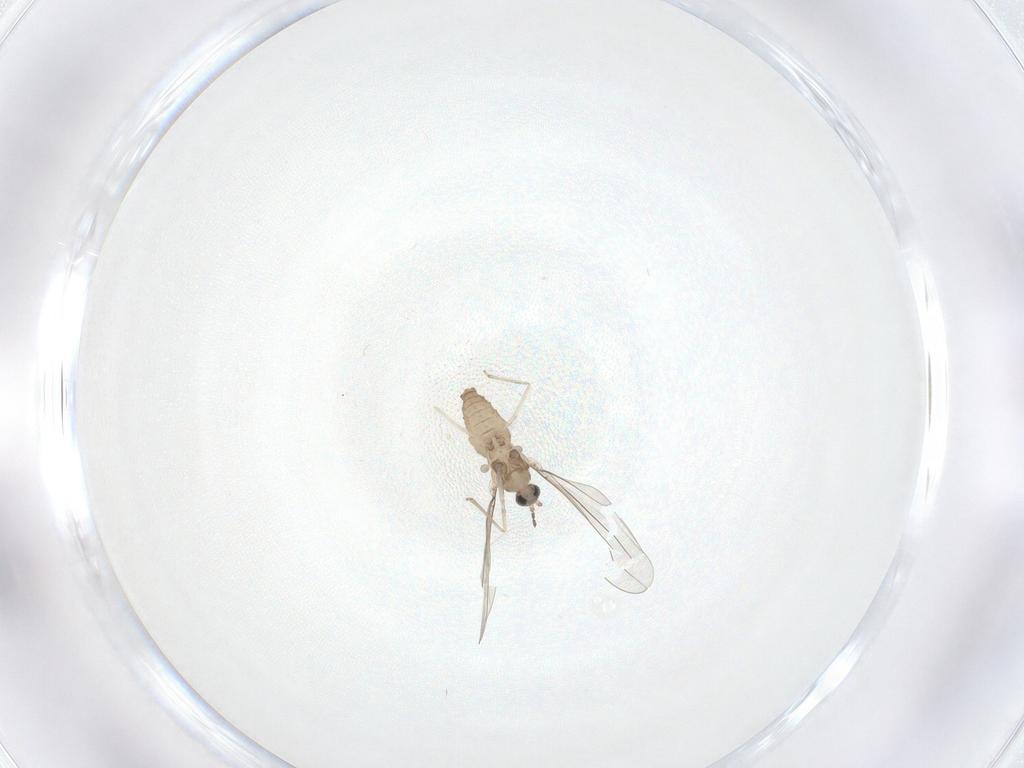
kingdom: Animalia
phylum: Arthropoda
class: Insecta
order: Diptera
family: Cecidomyiidae
